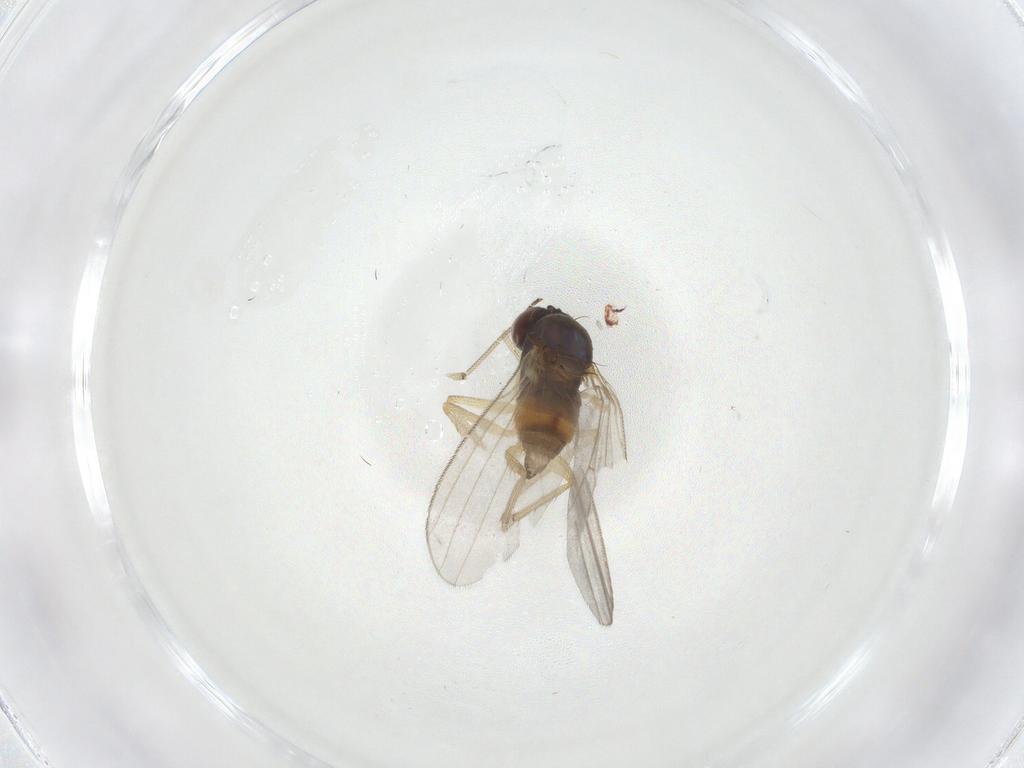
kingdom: Animalia
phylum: Arthropoda
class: Insecta
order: Diptera
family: Dolichopodidae
